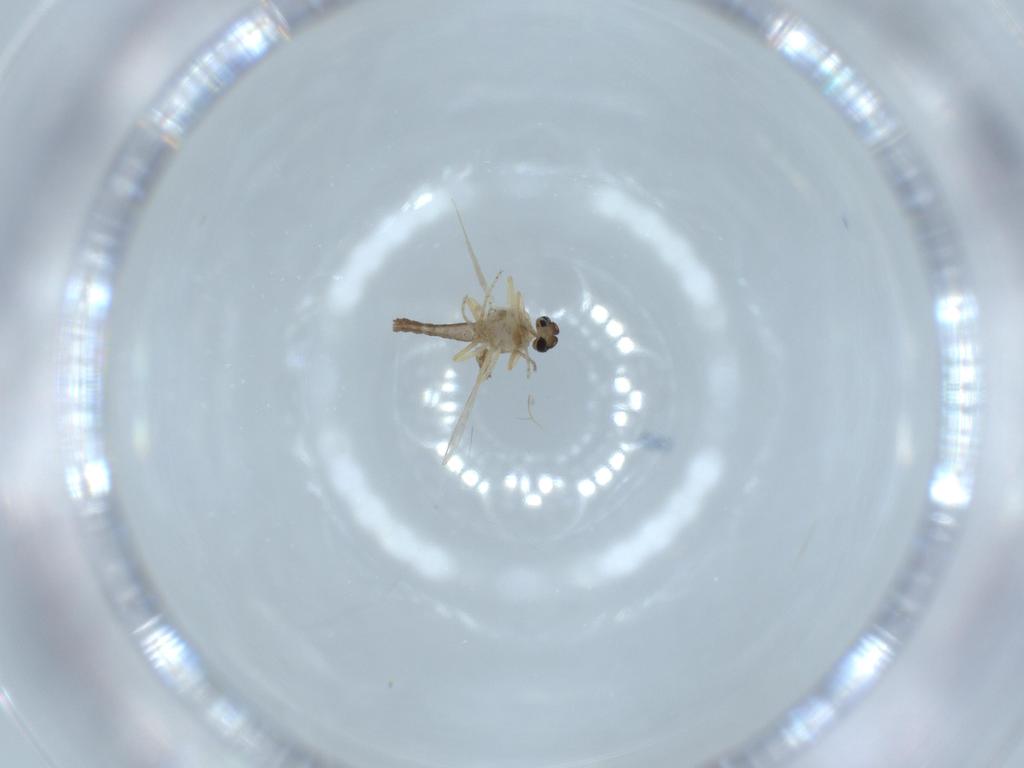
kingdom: Animalia
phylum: Arthropoda
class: Insecta
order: Diptera
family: Ceratopogonidae
